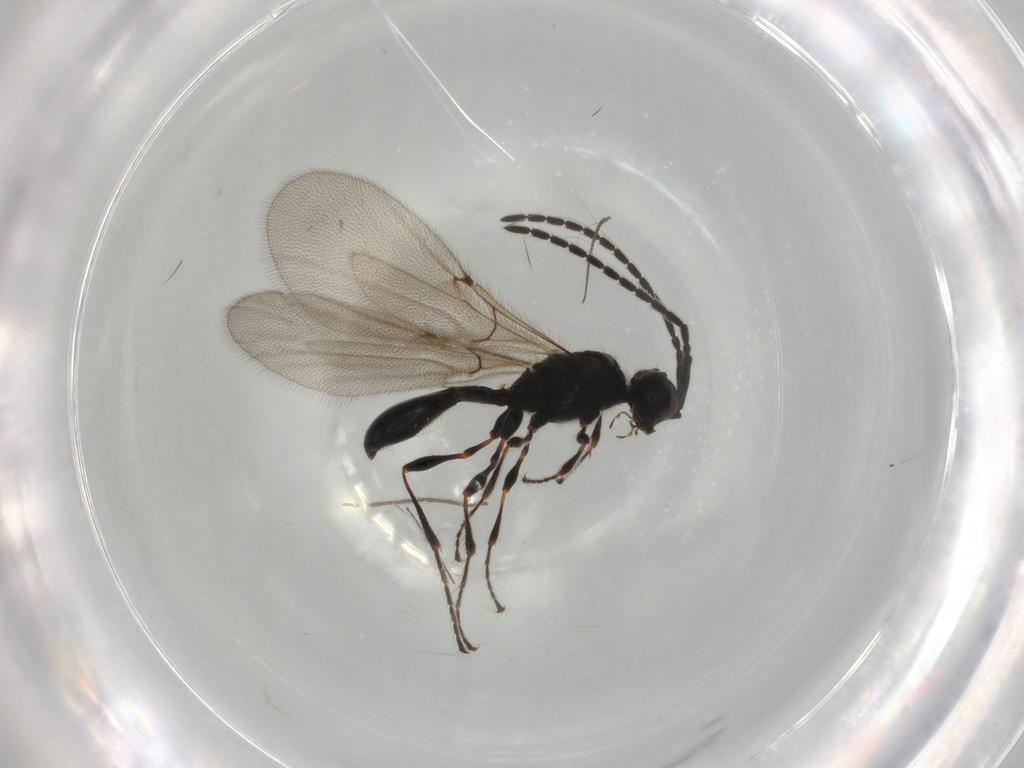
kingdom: Animalia
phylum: Arthropoda
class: Insecta
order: Hymenoptera
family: Diapriidae
